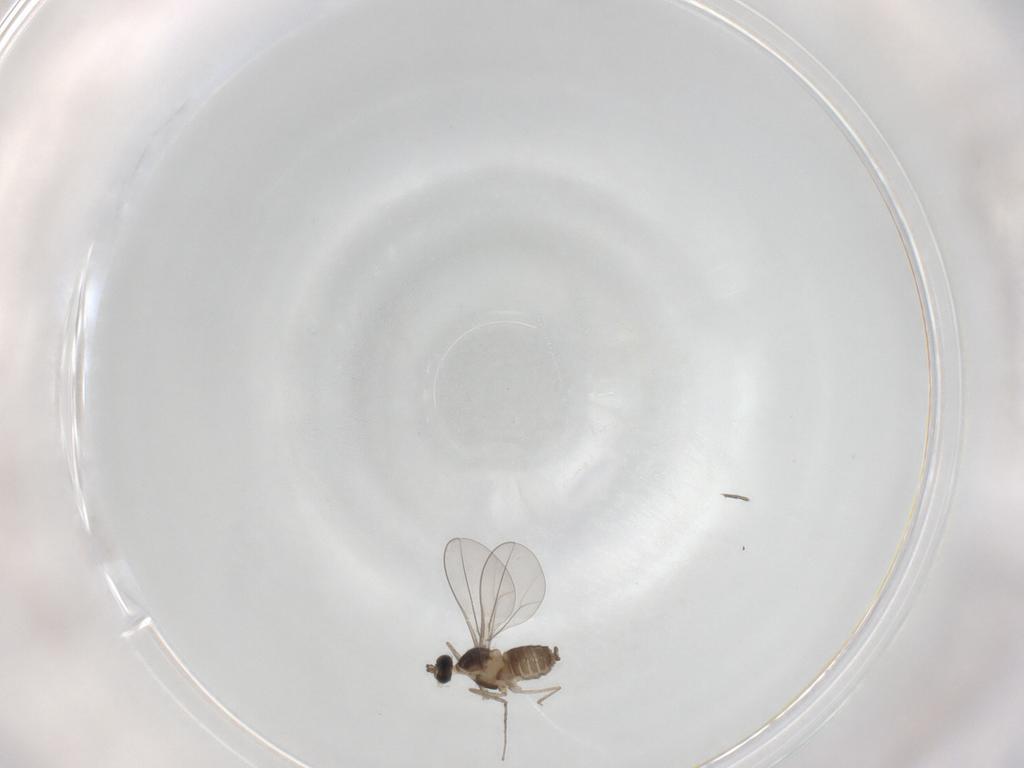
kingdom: Animalia
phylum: Arthropoda
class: Insecta
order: Diptera
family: Cecidomyiidae
